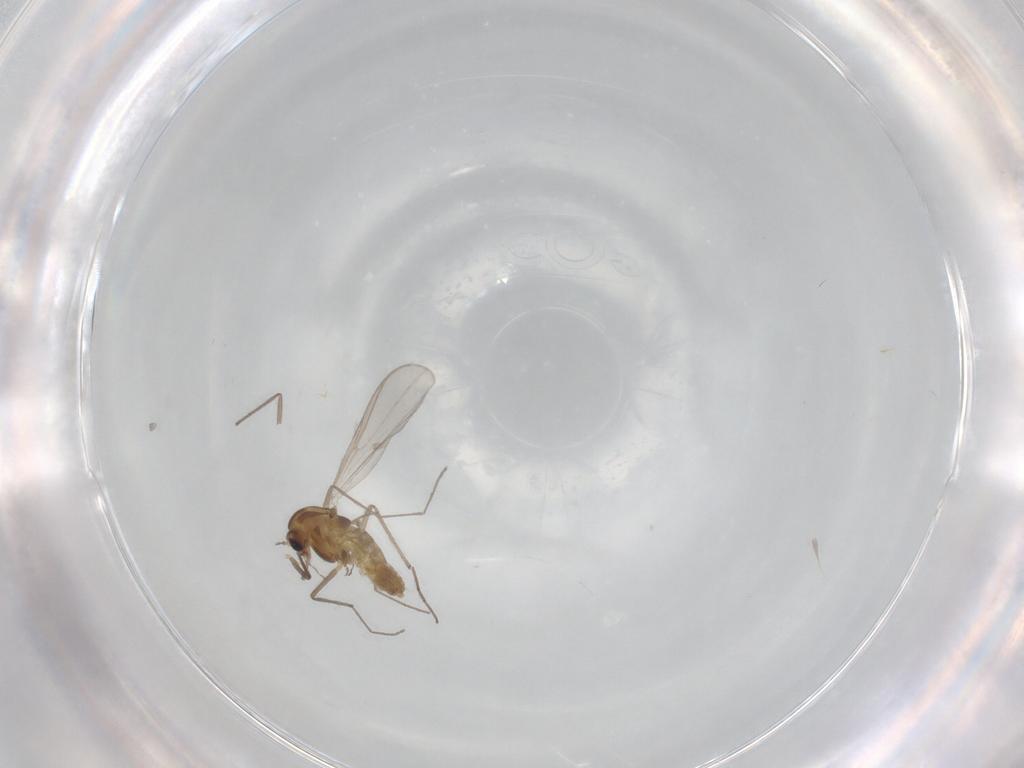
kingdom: Animalia
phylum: Arthropoda
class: Insecta
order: Diptera
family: Chironomidae
